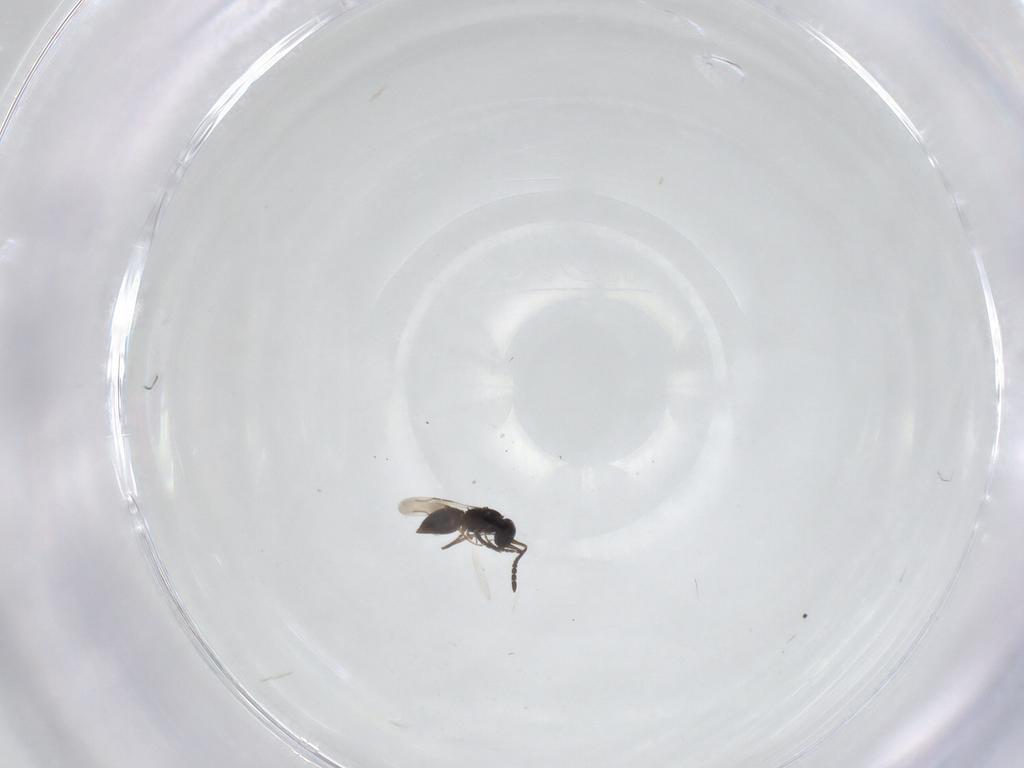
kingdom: Animalia
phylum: Arthropoda
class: Insecta
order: Hymenoptera
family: Ceraphronidae
